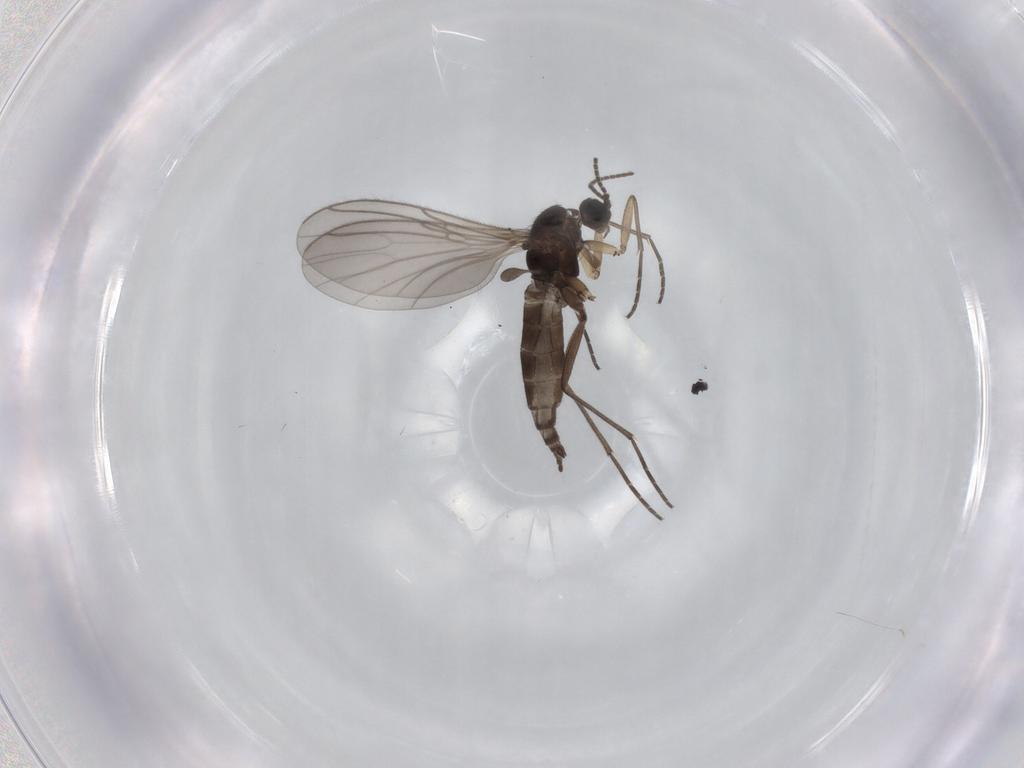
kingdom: Animalia
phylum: Arthropoda
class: Insecta
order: Diptera
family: Sciaridae
